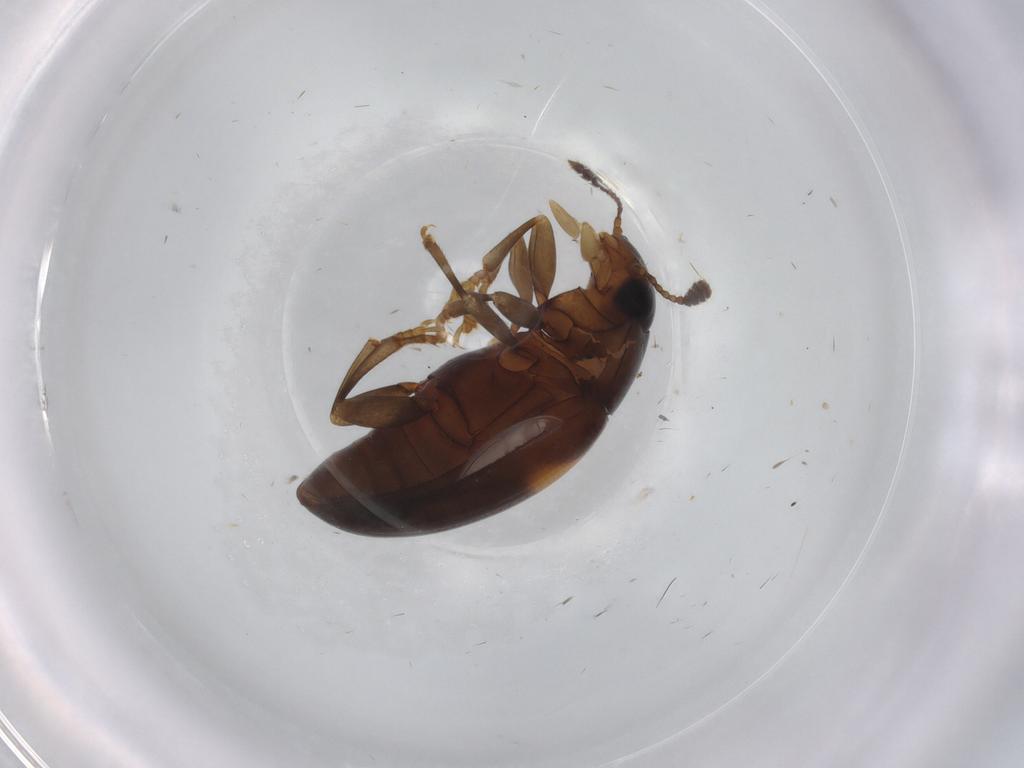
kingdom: Animalia
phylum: Arthropoda
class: Insecta
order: Coleoptera
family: Erotylidae
